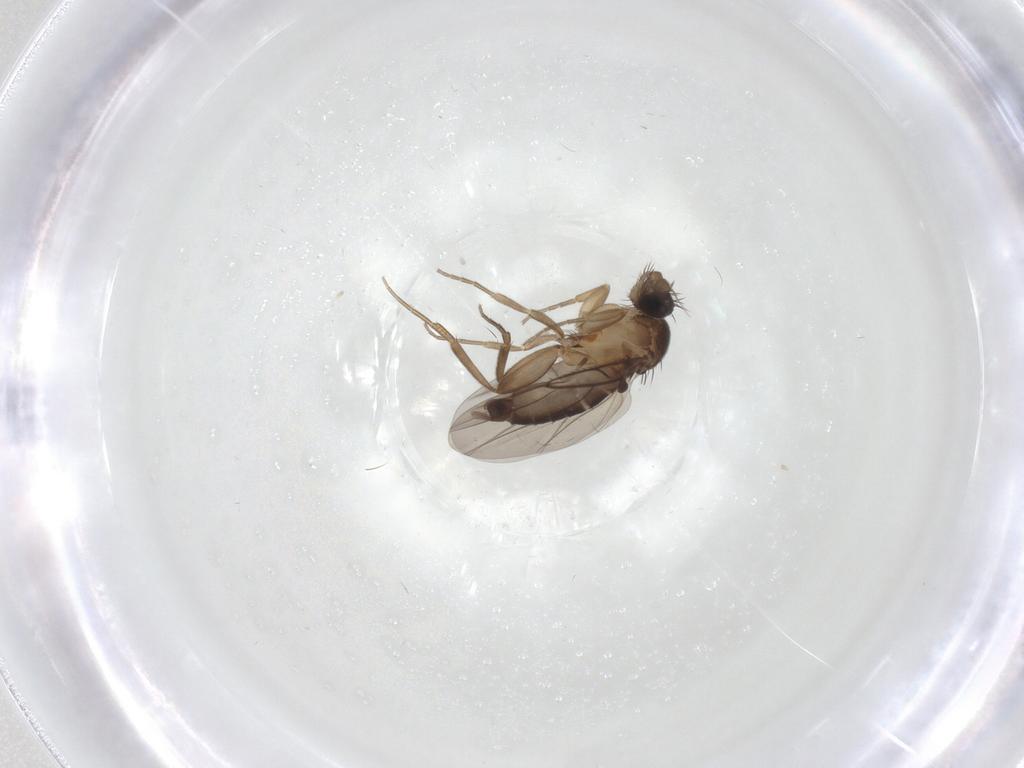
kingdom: Animalia
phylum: Arthropoda
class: Insecta
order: Diptera
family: Phoridae
